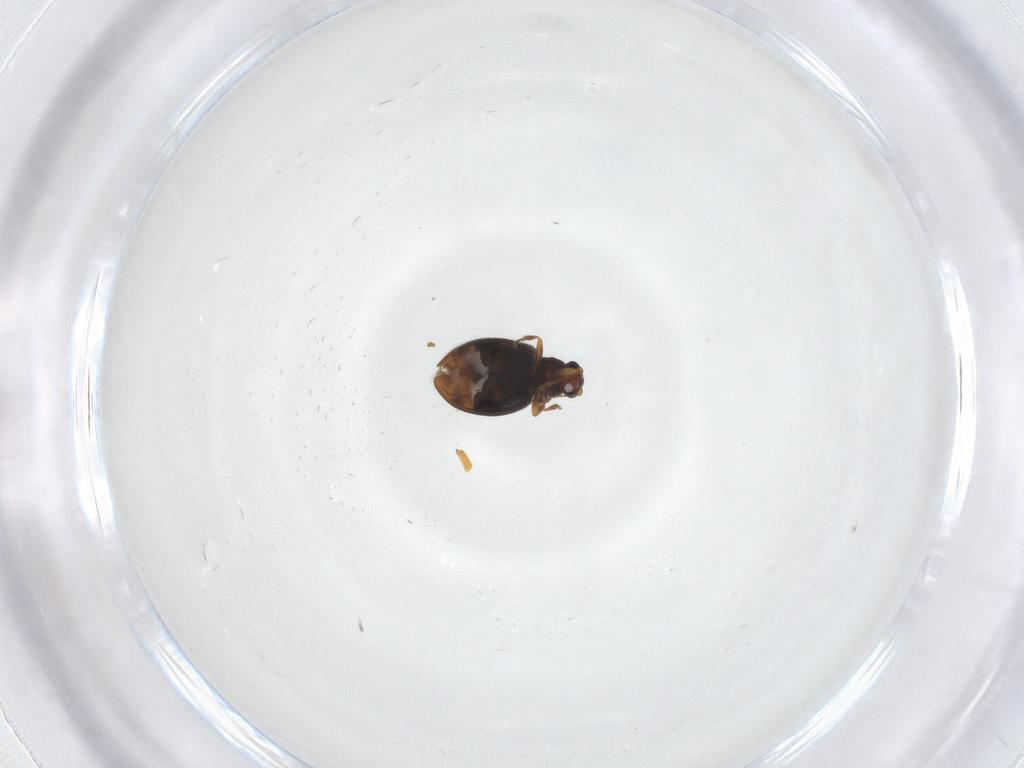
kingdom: Animalia
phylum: Arthropoda
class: Insecta
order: Coleoptera
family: Latridiidae
